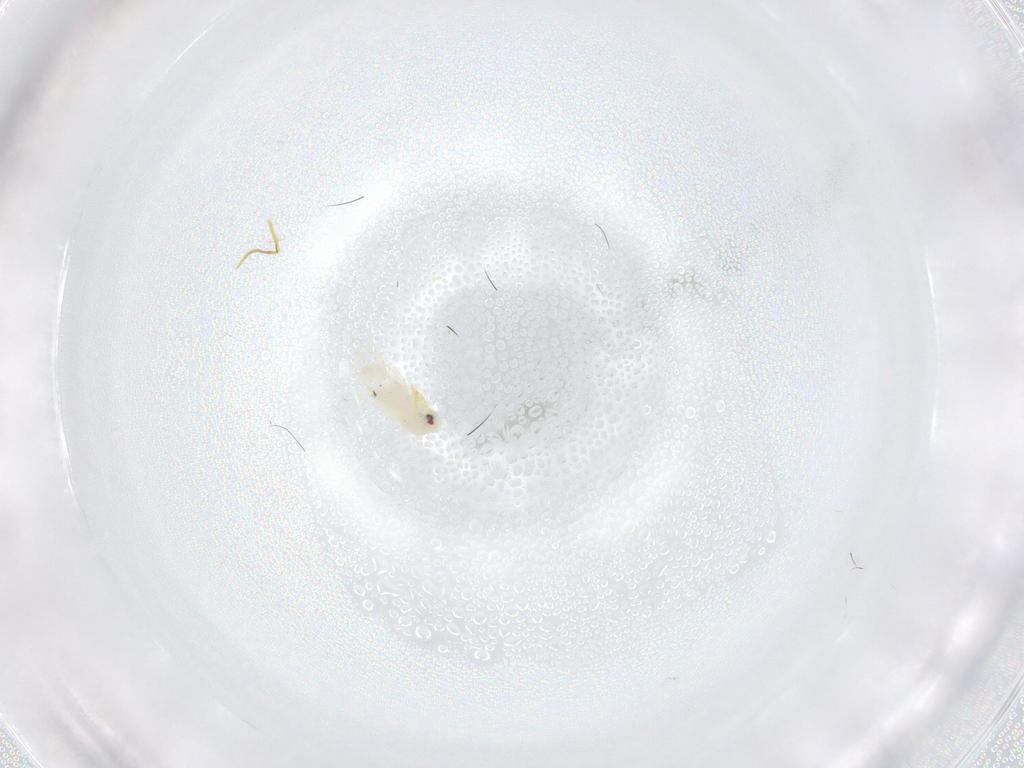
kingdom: Animalia
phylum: Arthropoda
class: Insecta
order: Hemiptera
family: Aleyrodidae
